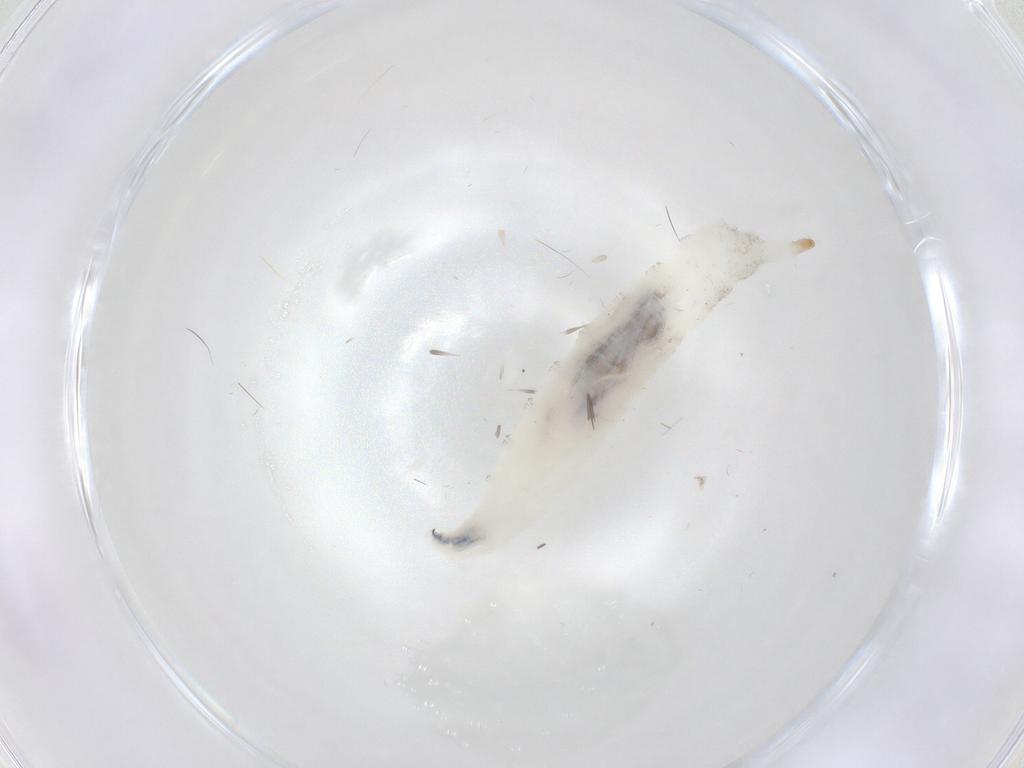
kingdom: Animalia
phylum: Arthropoda
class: Insecta
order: Diptera
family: Drosophilidae
